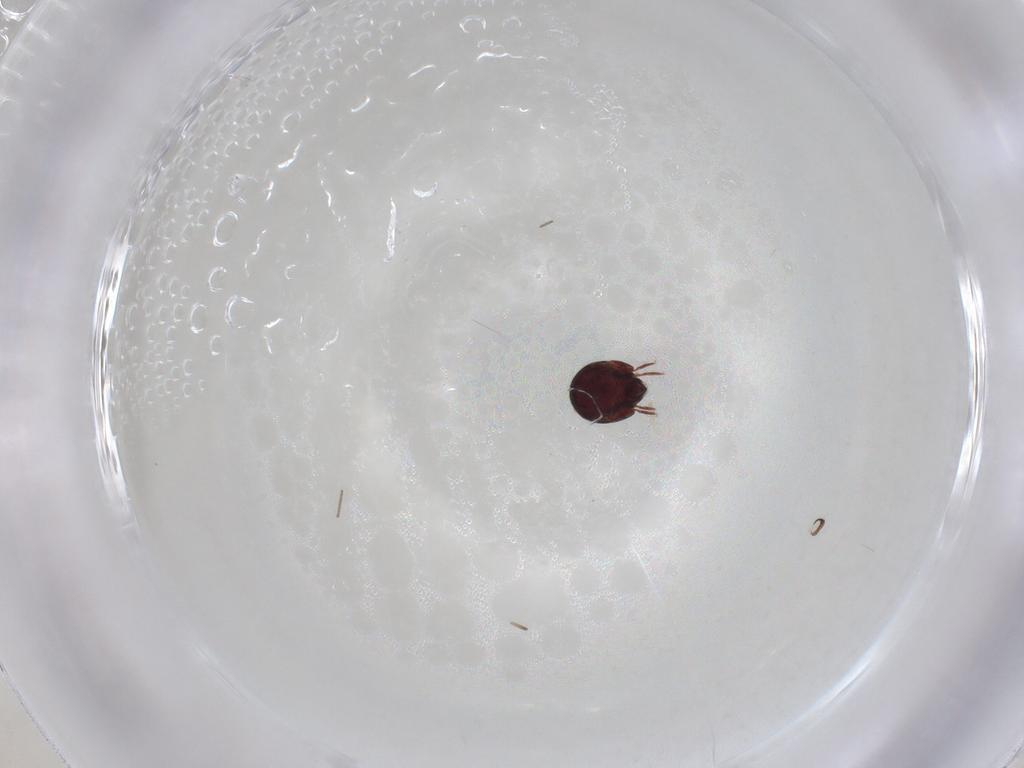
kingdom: Animalia
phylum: Arthropoda
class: Arachnida
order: Sarcoptiformes
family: Humerobatidae
